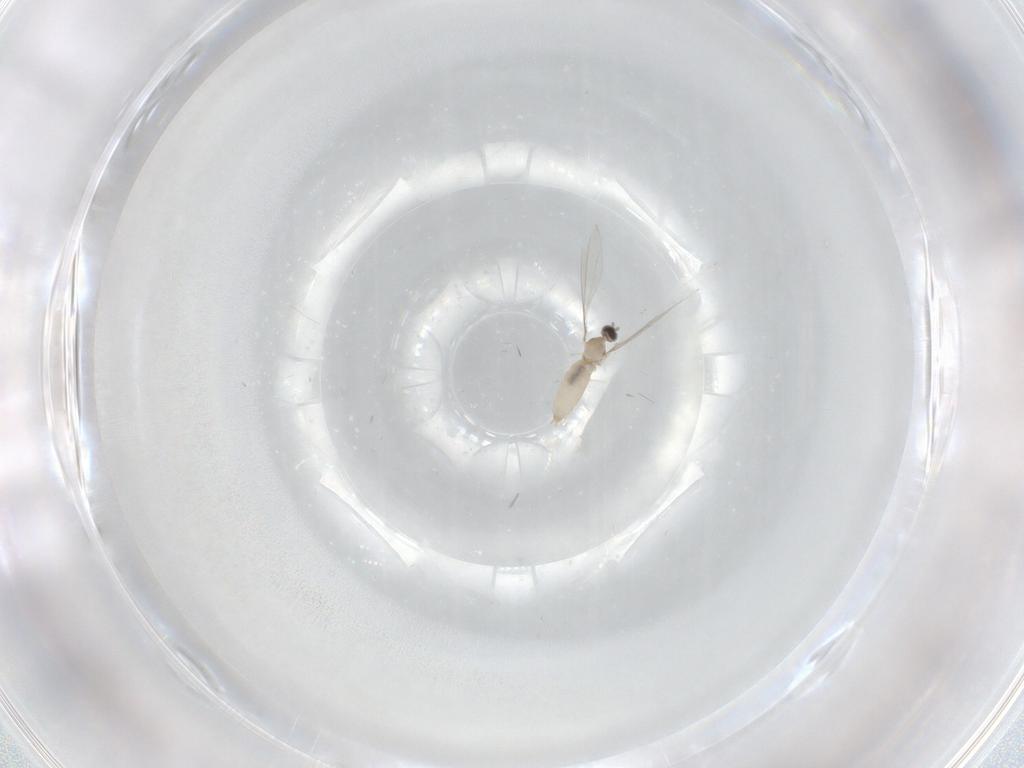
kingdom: Animalia
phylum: Arthropoda
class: Insecta
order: Diptera
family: Cecidomyiidae
